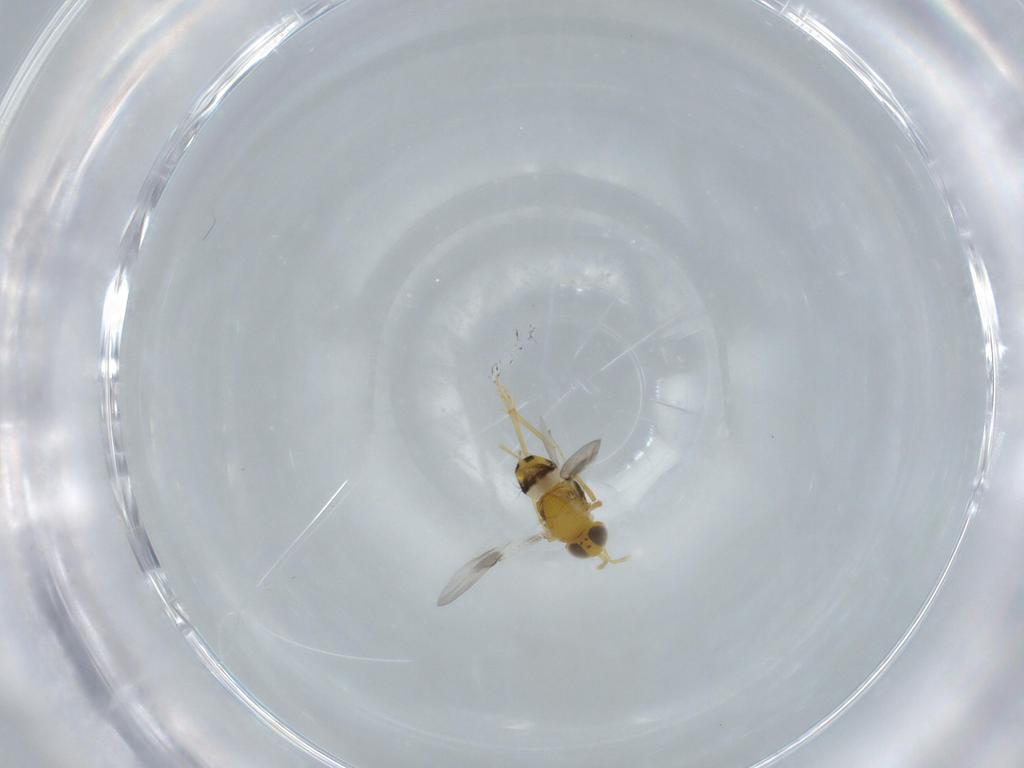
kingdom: Animalia
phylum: Arthropoda
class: Insecta
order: Hymenoptera
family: Encyrtidae
